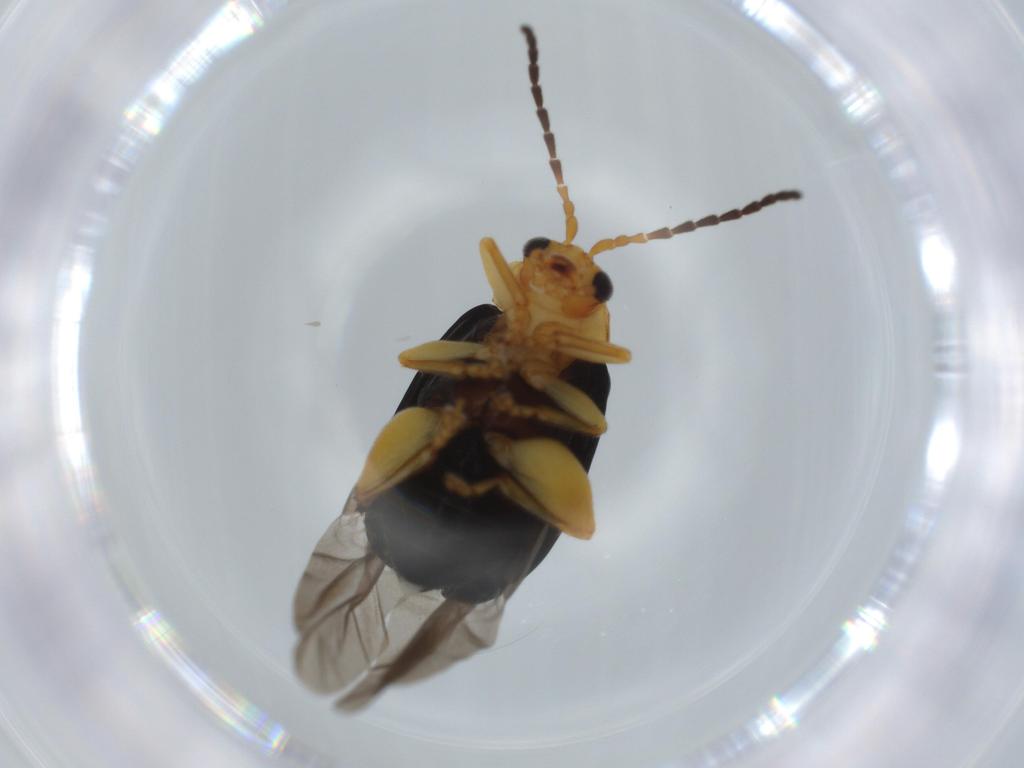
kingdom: Animalia
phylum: Arthropoda
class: Insecta
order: Coleoptera
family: Chrysomelidae
